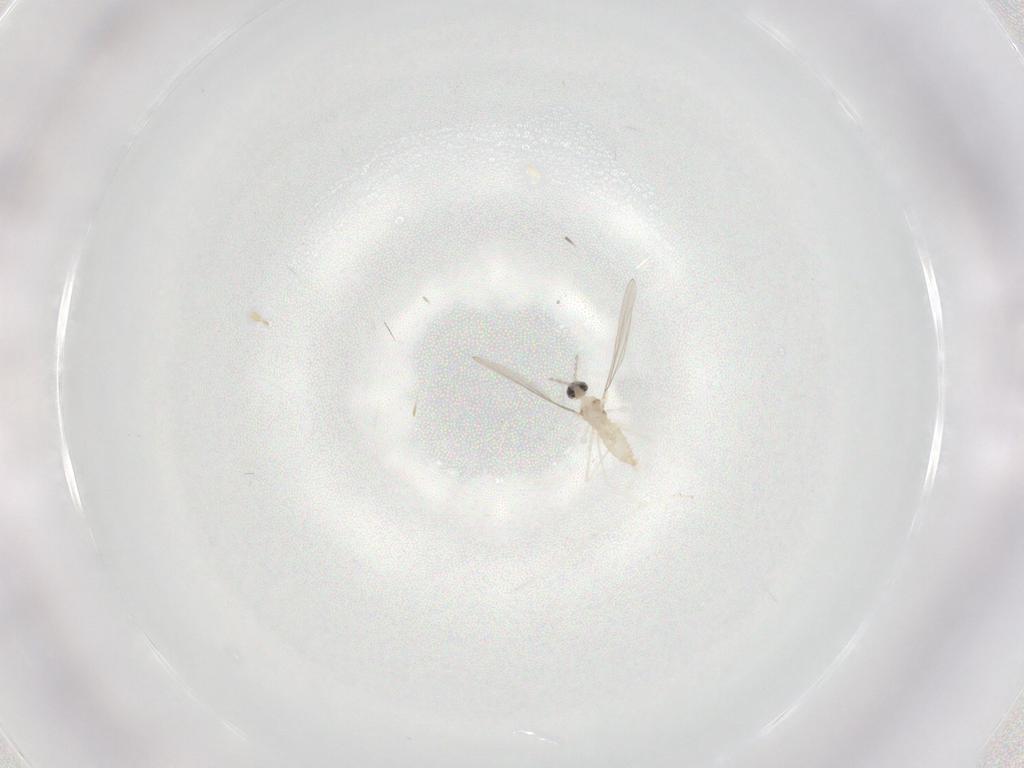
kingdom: Animalia
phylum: Arthropoda
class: Insecta
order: Diptera
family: Cecidomyiidae
